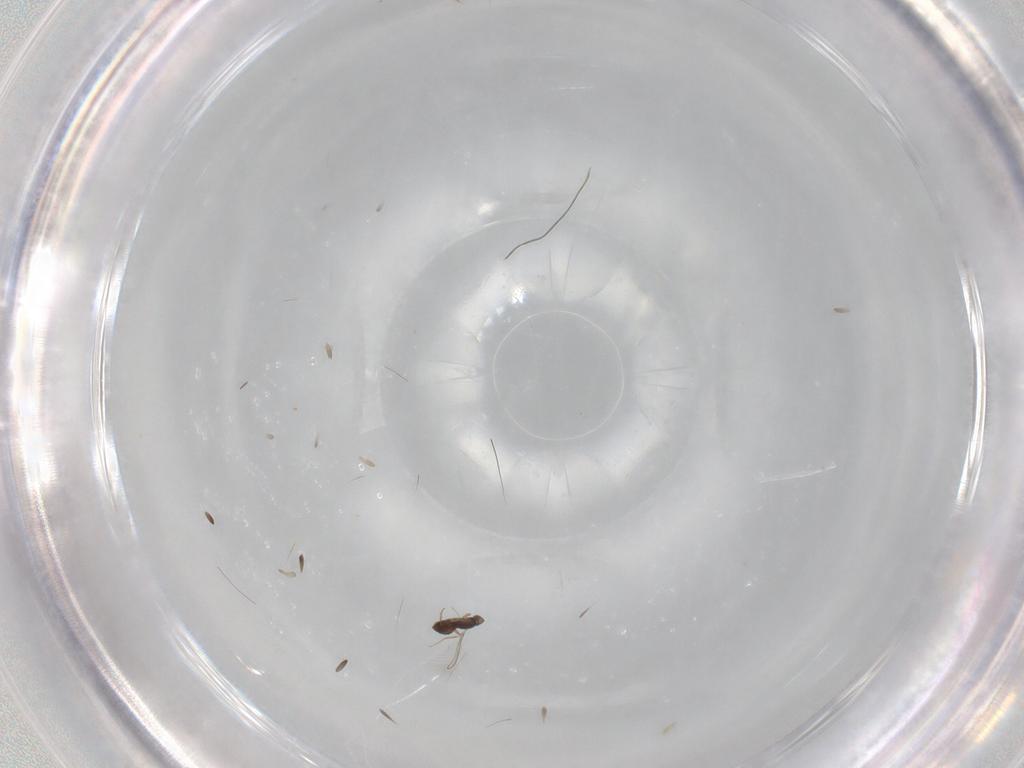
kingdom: Animalia
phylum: Arthropoda
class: Insecta
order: Hymenoptera
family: Mymaridae
